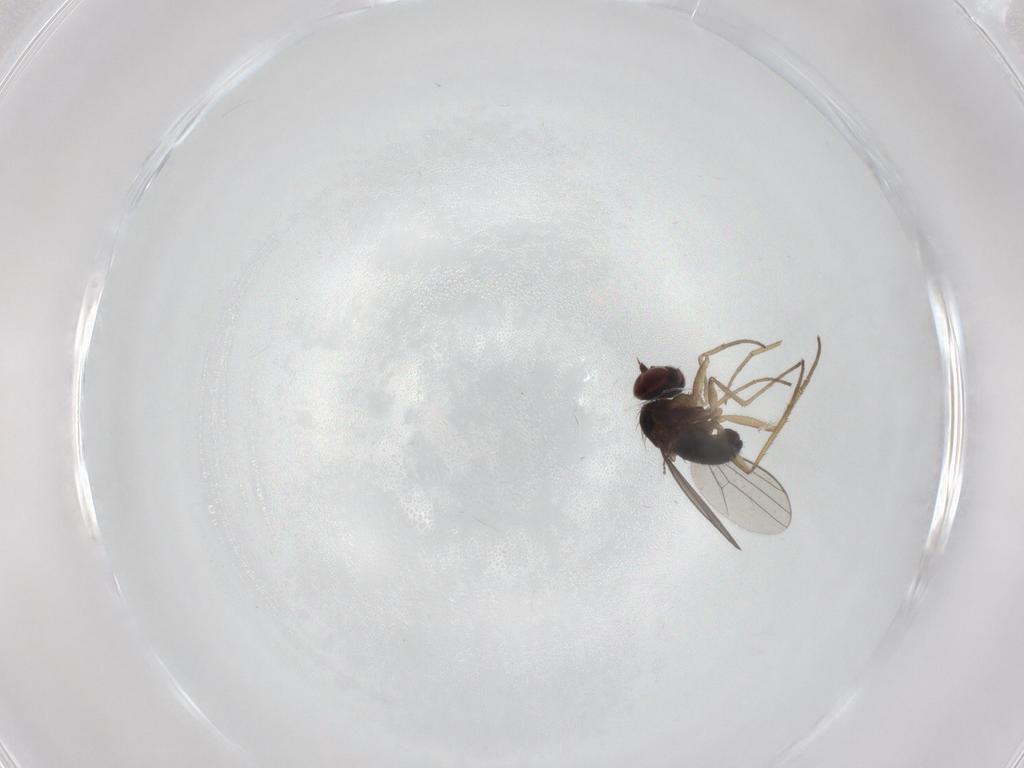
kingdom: Animalia
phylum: Arthropoda
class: Insecta
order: Diptera
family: Dolichopodidae
